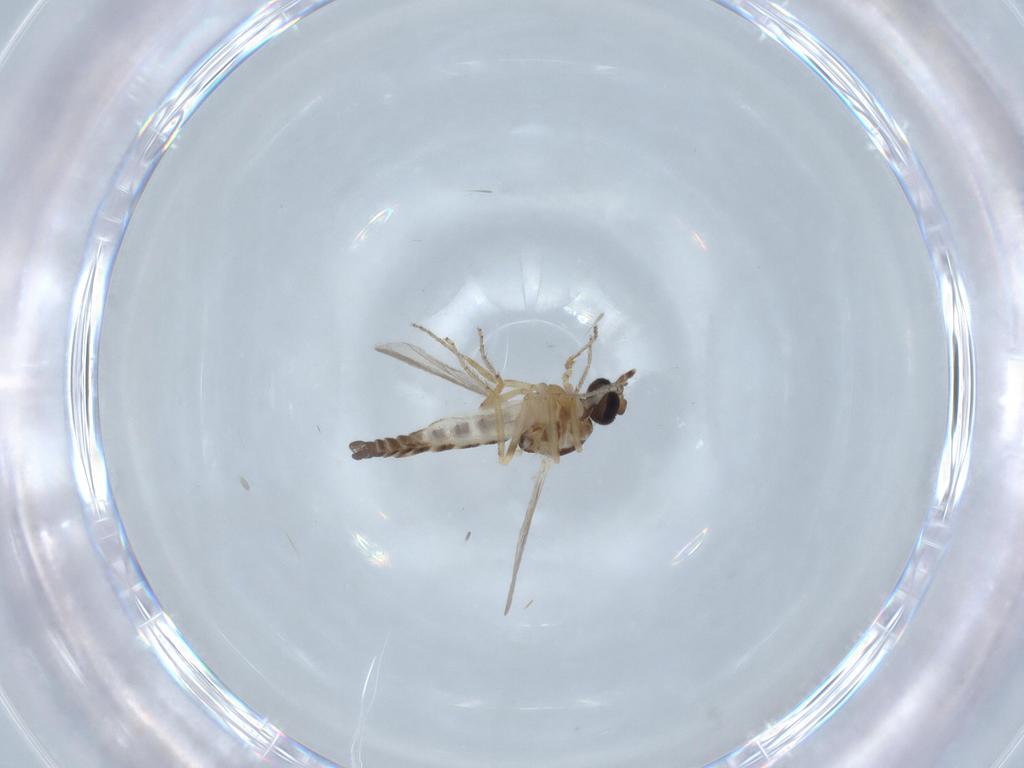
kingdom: Animalia
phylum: Arthropoda
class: Insecta
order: Diptera
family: Ceratopogonidae
